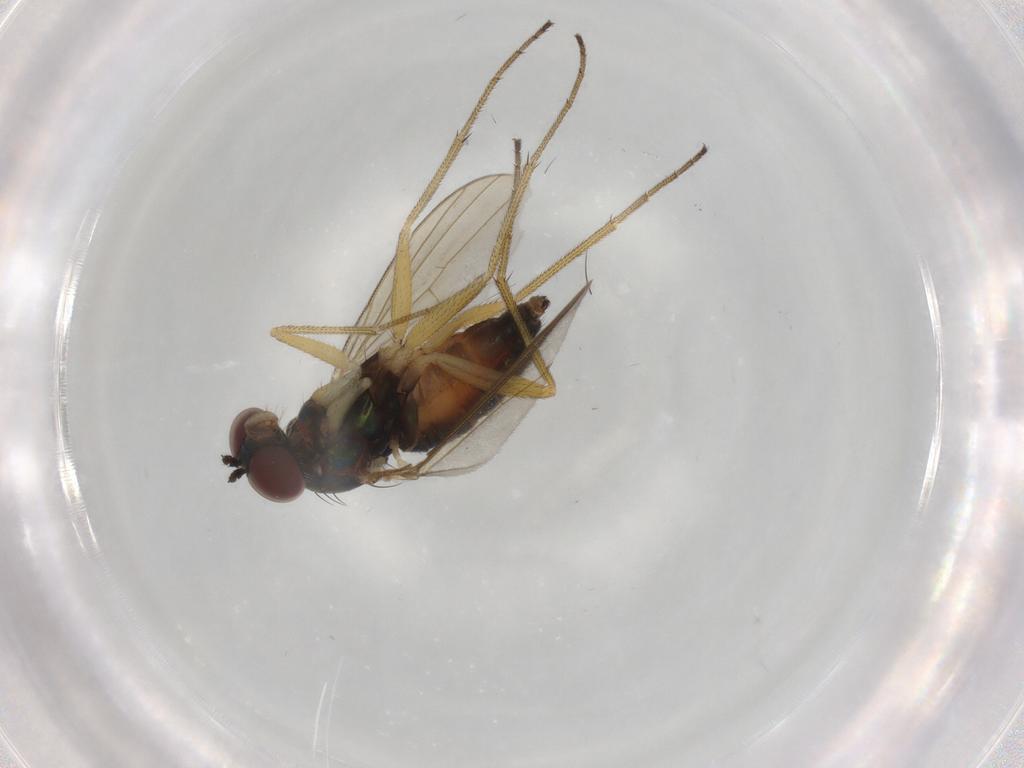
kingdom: Animalia
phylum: Arthropoda
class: Insecta
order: Diptera
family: Dolichopodidae
